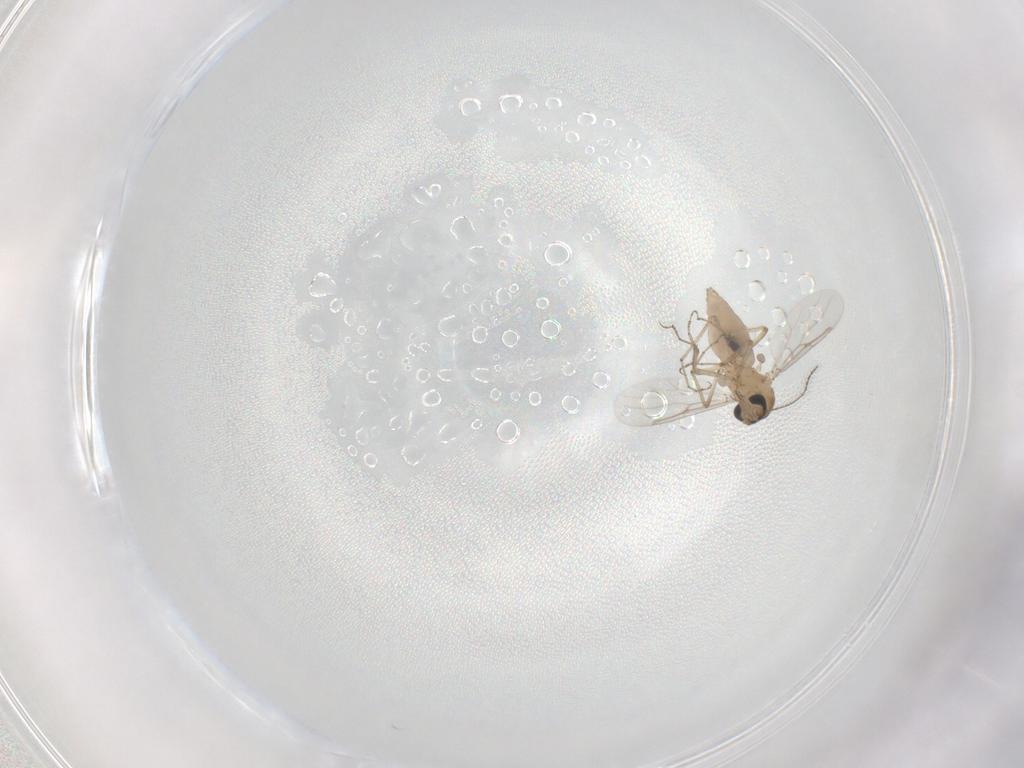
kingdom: Animalia
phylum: Arthropoda
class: Insecta
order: Diptera
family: Ceratopogonidae
